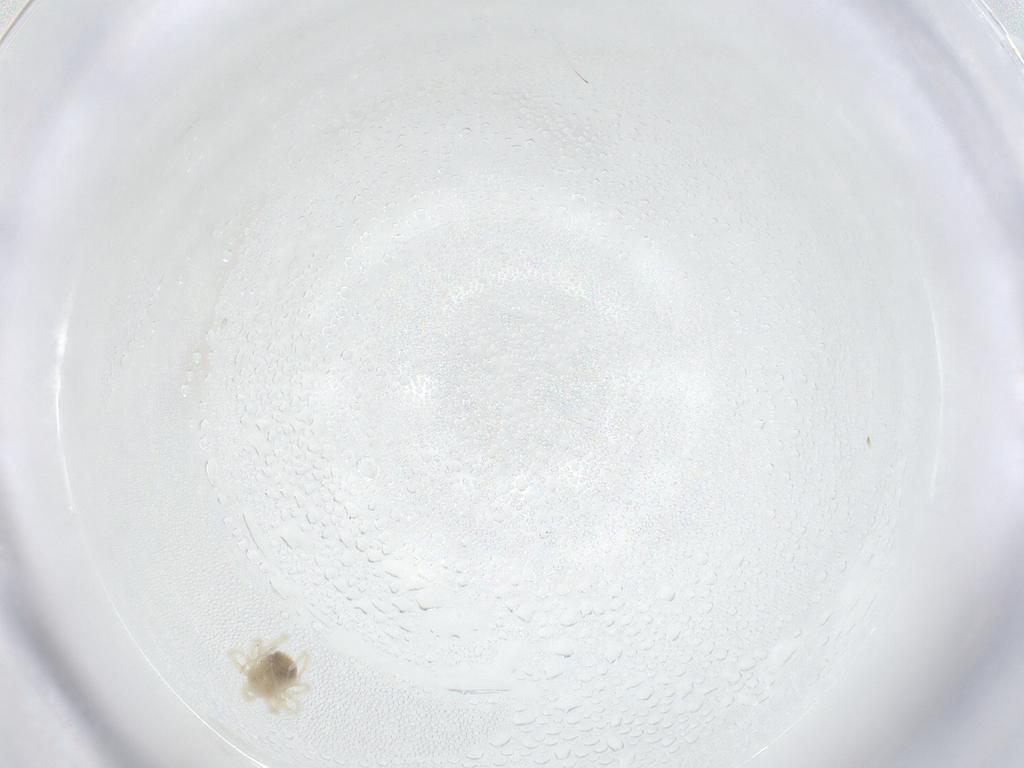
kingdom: Animalia
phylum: Arthropoda
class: Arachnida
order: Trombidiformes
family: Anystidae
